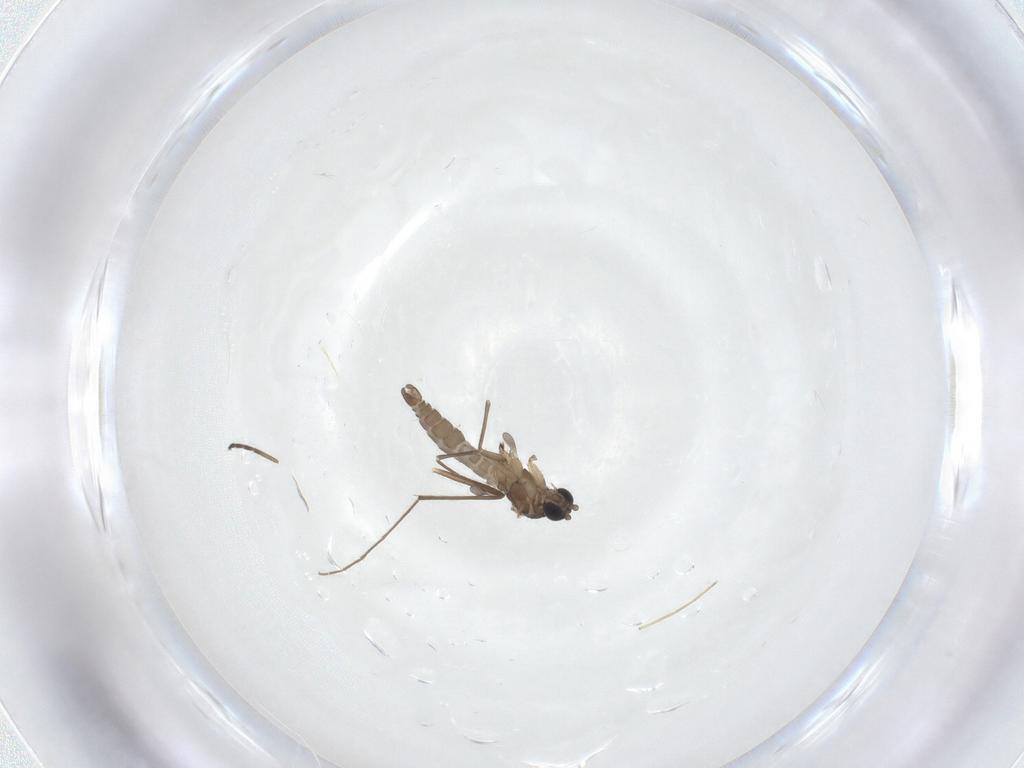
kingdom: Animalia
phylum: Arthropoda
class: Insecta
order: Diptera
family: Sciaridae
